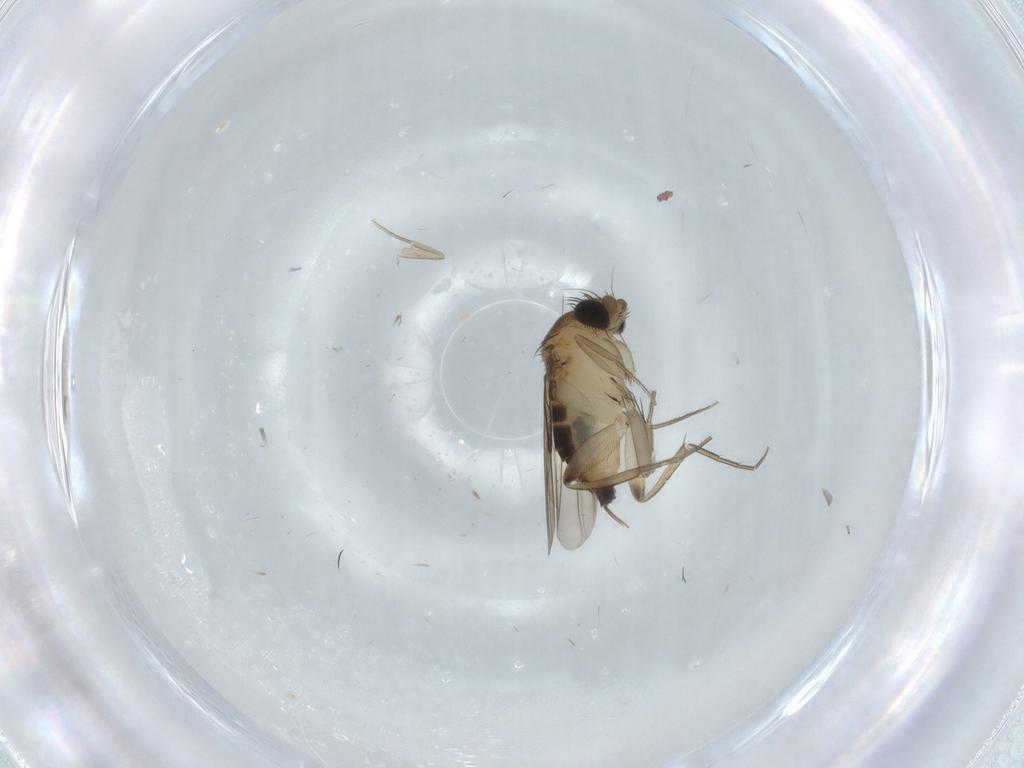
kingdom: Animalia
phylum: Arthropoda
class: Insecta
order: Diptera
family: Phoridae
